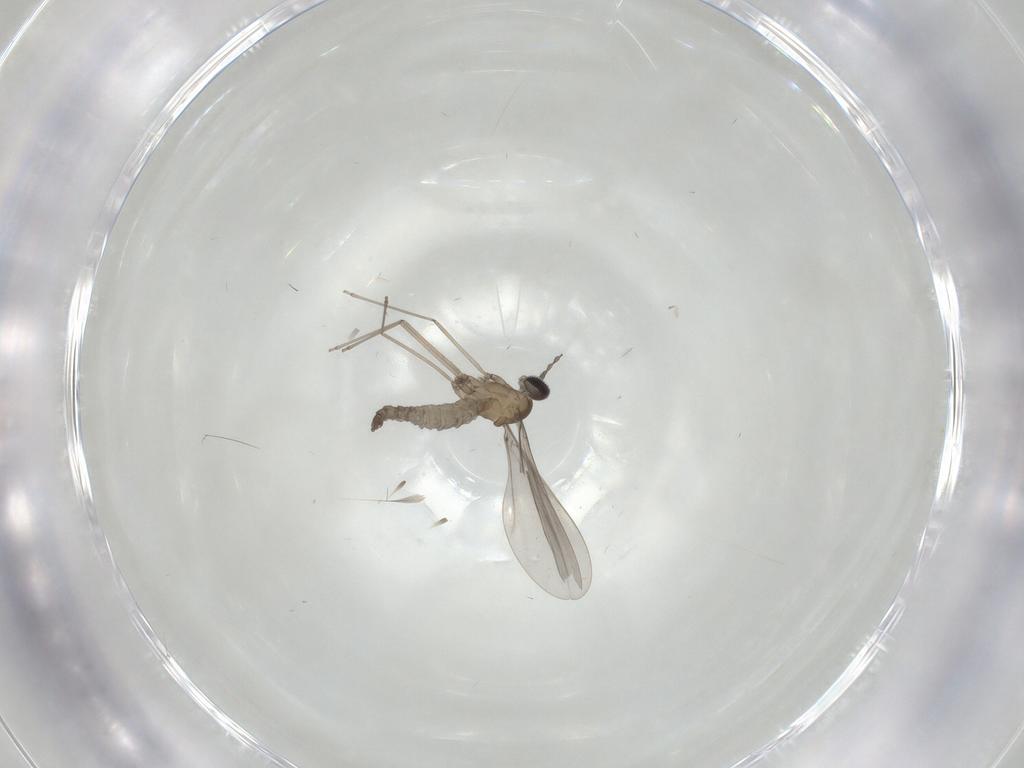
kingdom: Animalia
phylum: Arthropoda
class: Insecta
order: Diptera
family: Cecidomyiidae
